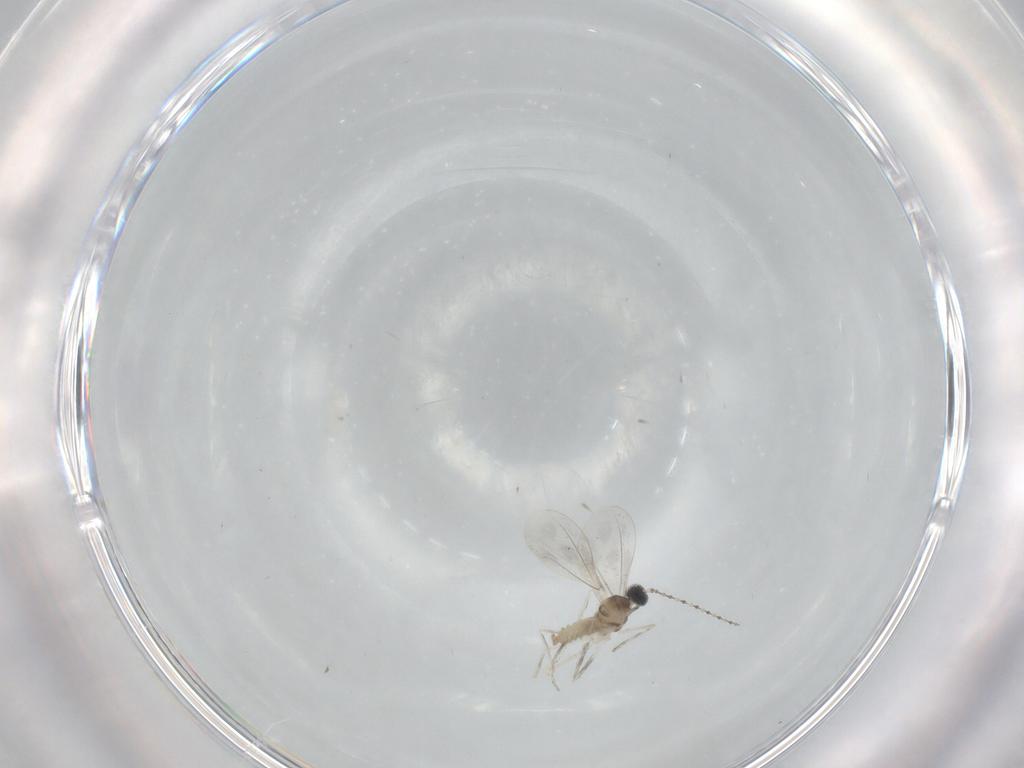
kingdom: Animalia
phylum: Arthropoda
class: Insecta
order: Diptera
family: Cecidomyiidae
